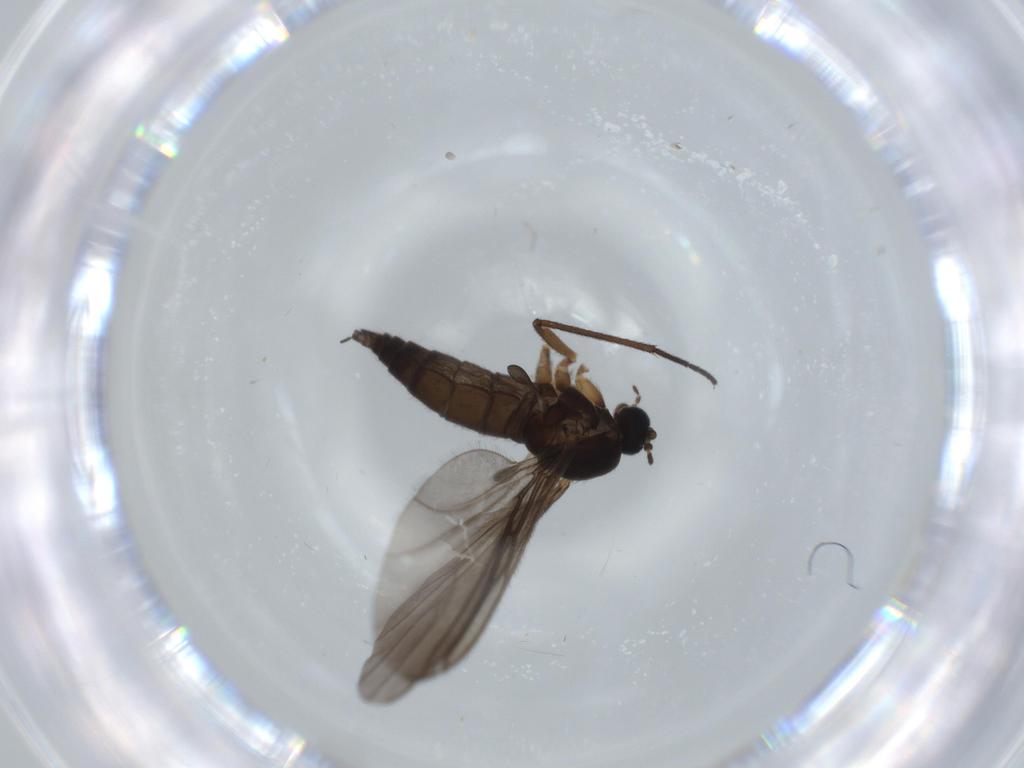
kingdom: Animalia
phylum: Arthropoda
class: Insecta
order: Diptera
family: Sciaridae
